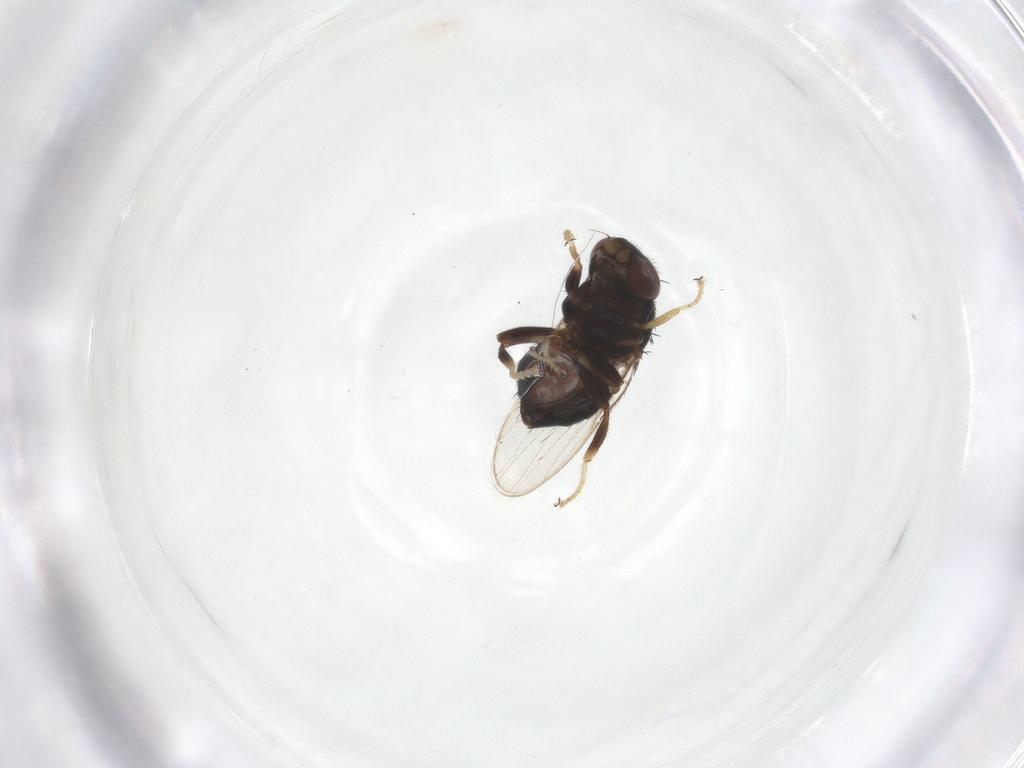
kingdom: Animalia
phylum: Arthropoda
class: Insecta
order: Diptera
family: Chloropidae
